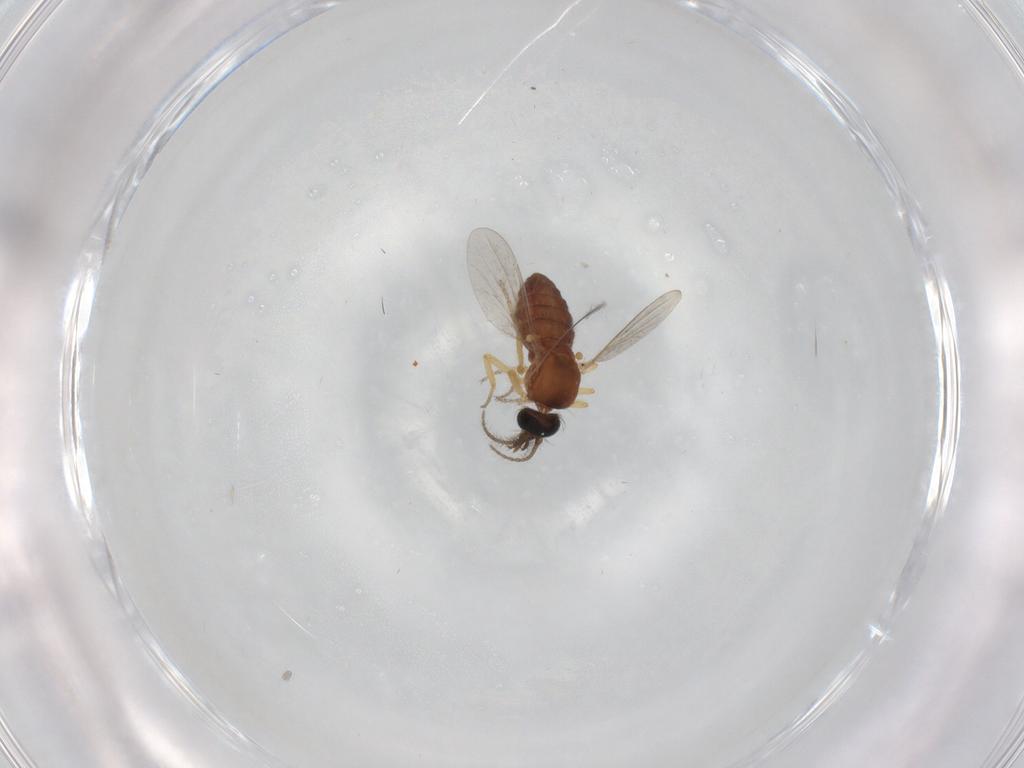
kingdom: Animalia
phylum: Arthropoda
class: Insecta
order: Diptera
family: Ceratopogonidae
